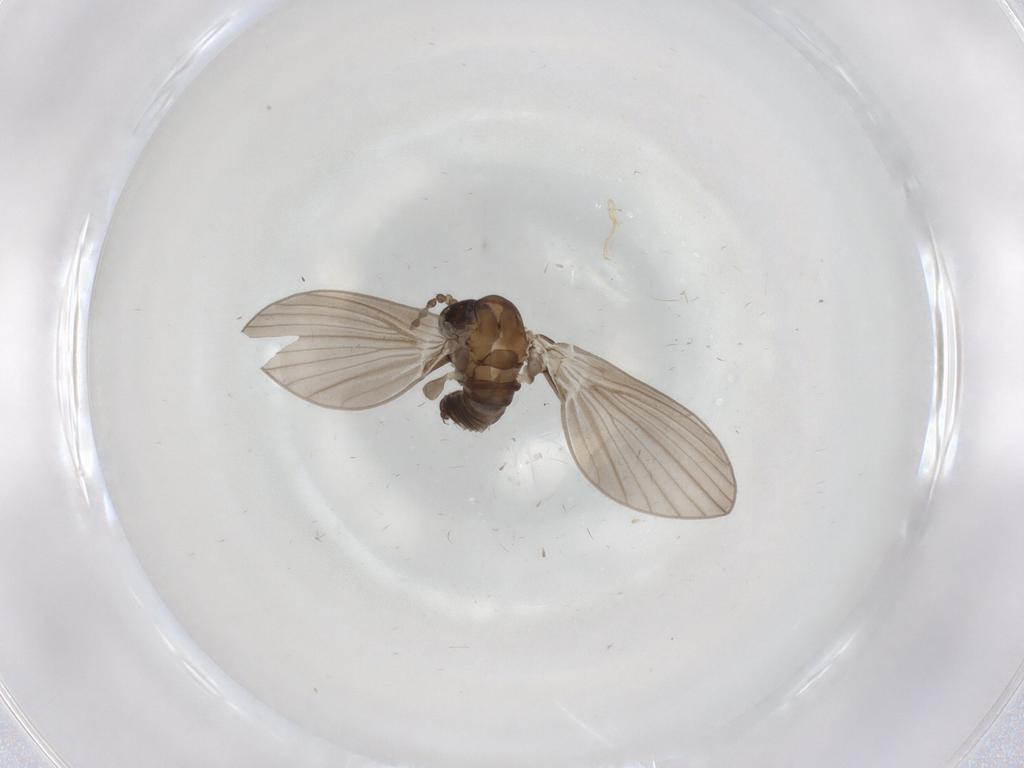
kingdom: Animalia
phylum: Arthropoda
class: Insecta
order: Diptera
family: Psychodidae
